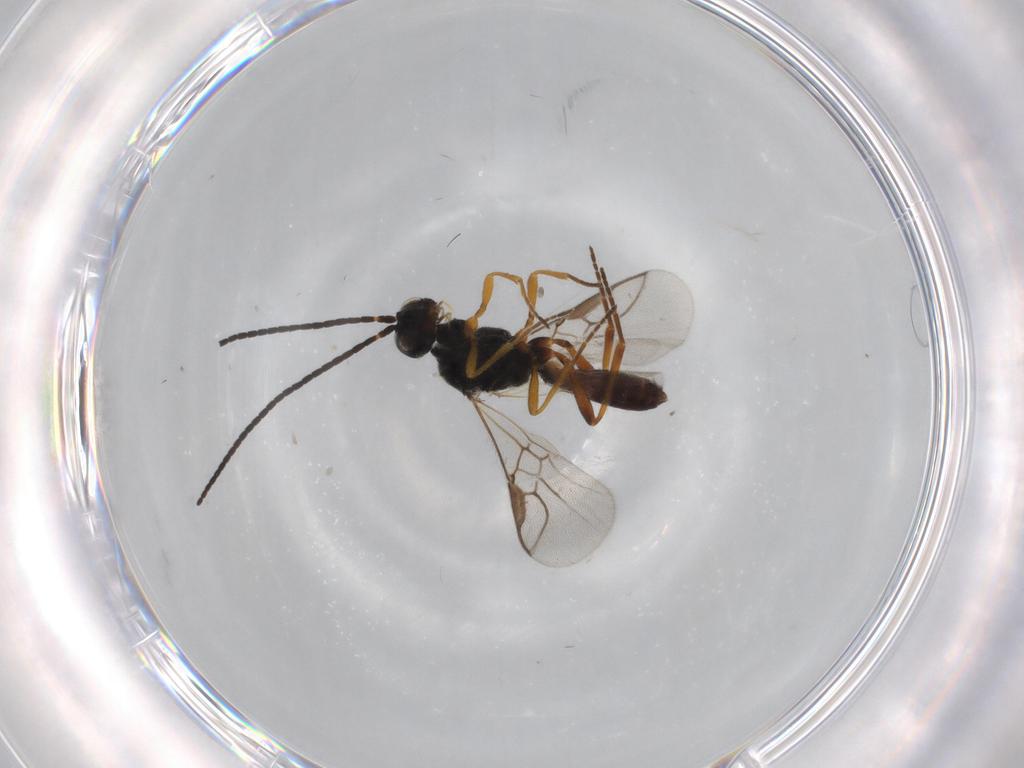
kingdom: Animalia
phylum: Arthropoda
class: Insecta
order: Hymenoptera
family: Braconidae
